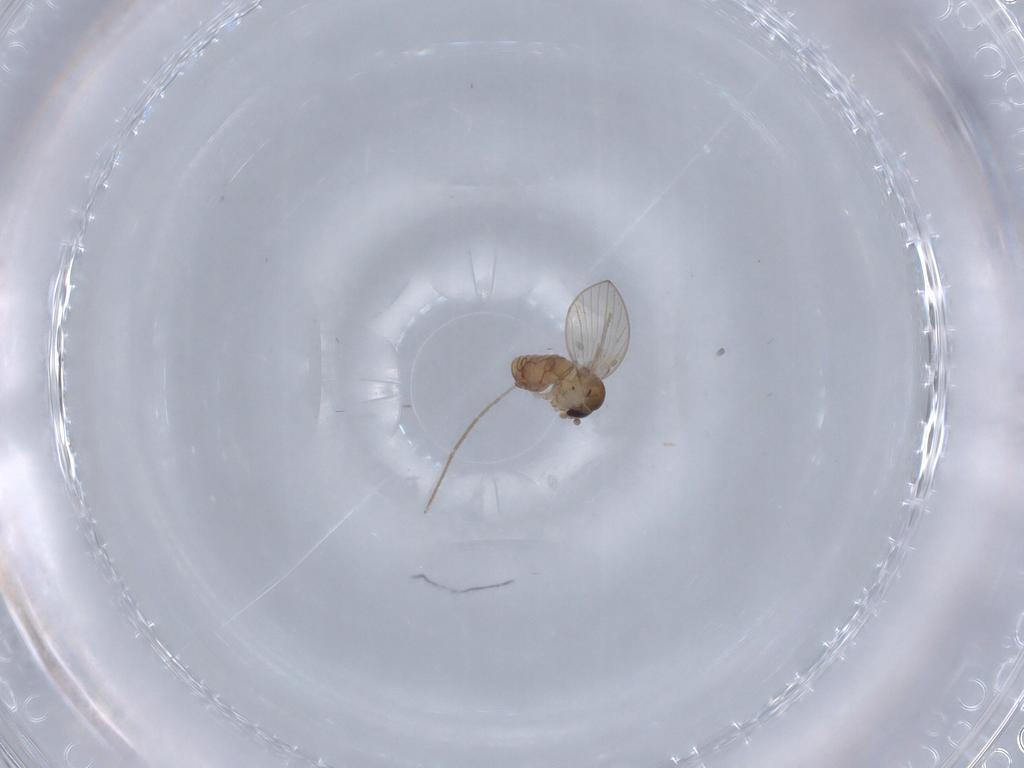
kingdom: Animalia
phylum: Arthropoda
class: Insecta
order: Diptera
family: Psychodidae
